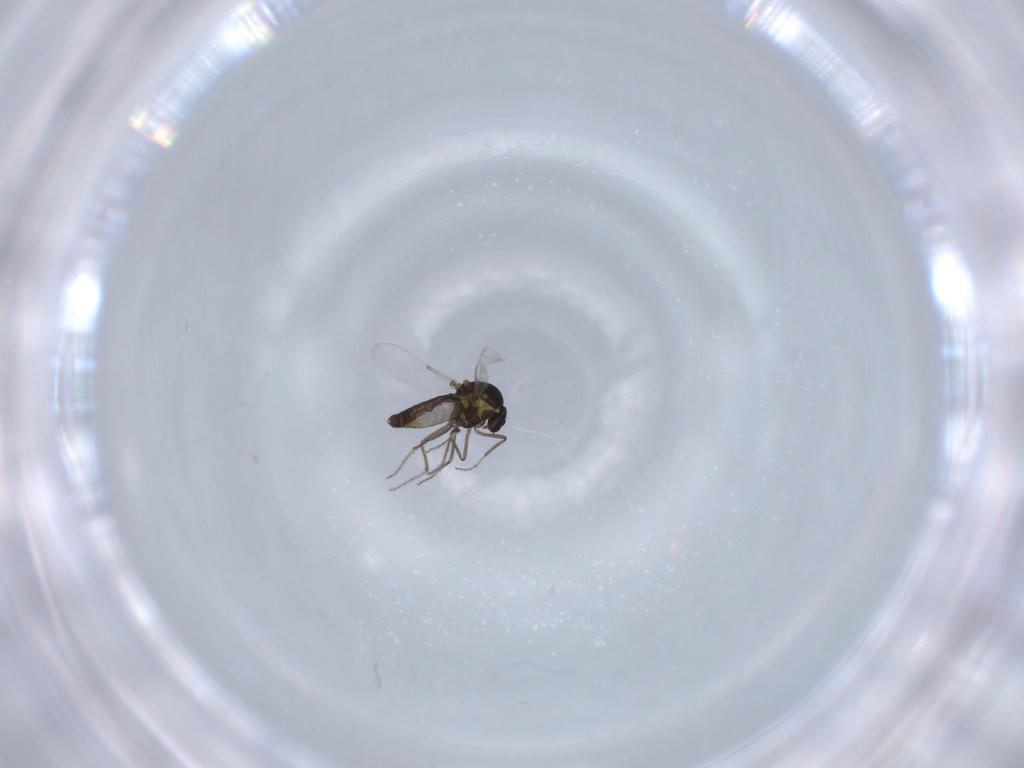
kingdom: Animalia
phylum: Arthropoda
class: Insecta
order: Diptera
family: Ceratopogonidae
